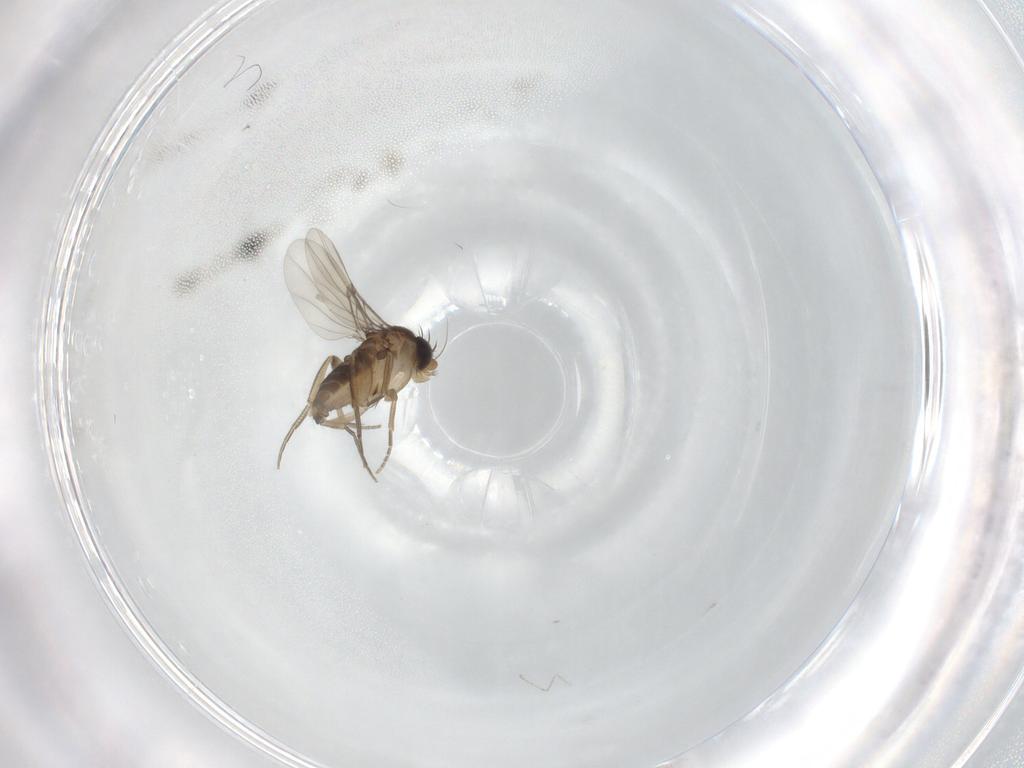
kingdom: Animalia
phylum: Arthropoda
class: Insecta
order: Diptera
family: Phoridae
